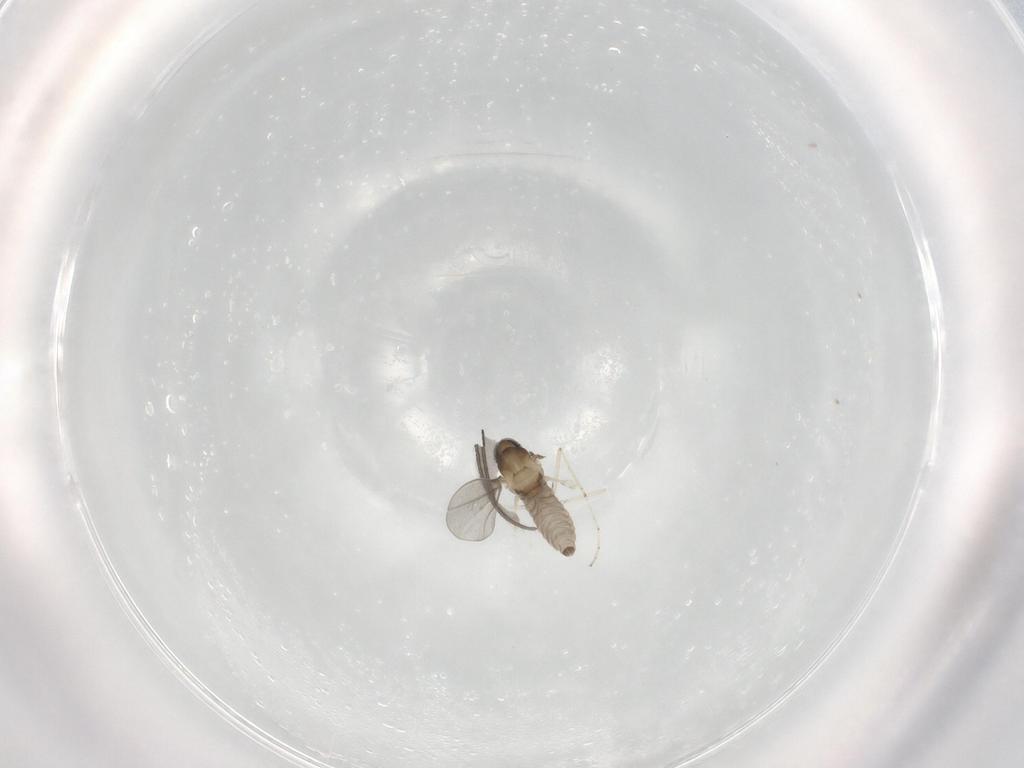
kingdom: Animalia
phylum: Arthropoda
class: Insecta
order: Diptera
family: Cecidomyiidae
